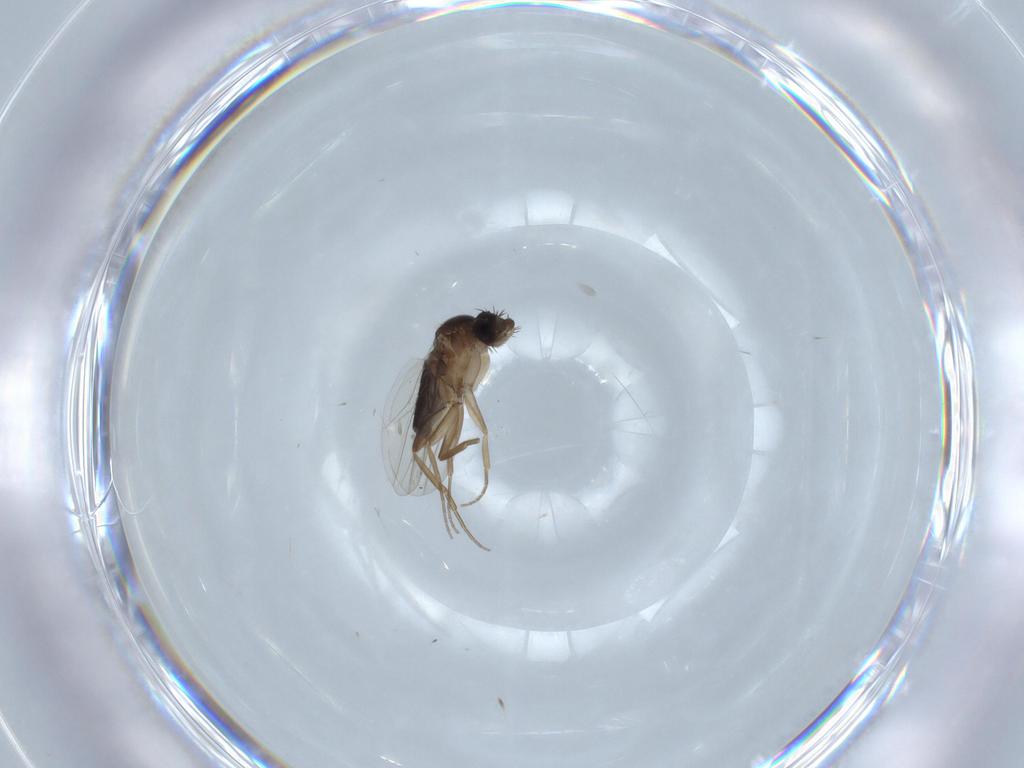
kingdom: Animalia
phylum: Arthropoda
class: Insecta
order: Diptera
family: Phoridae
